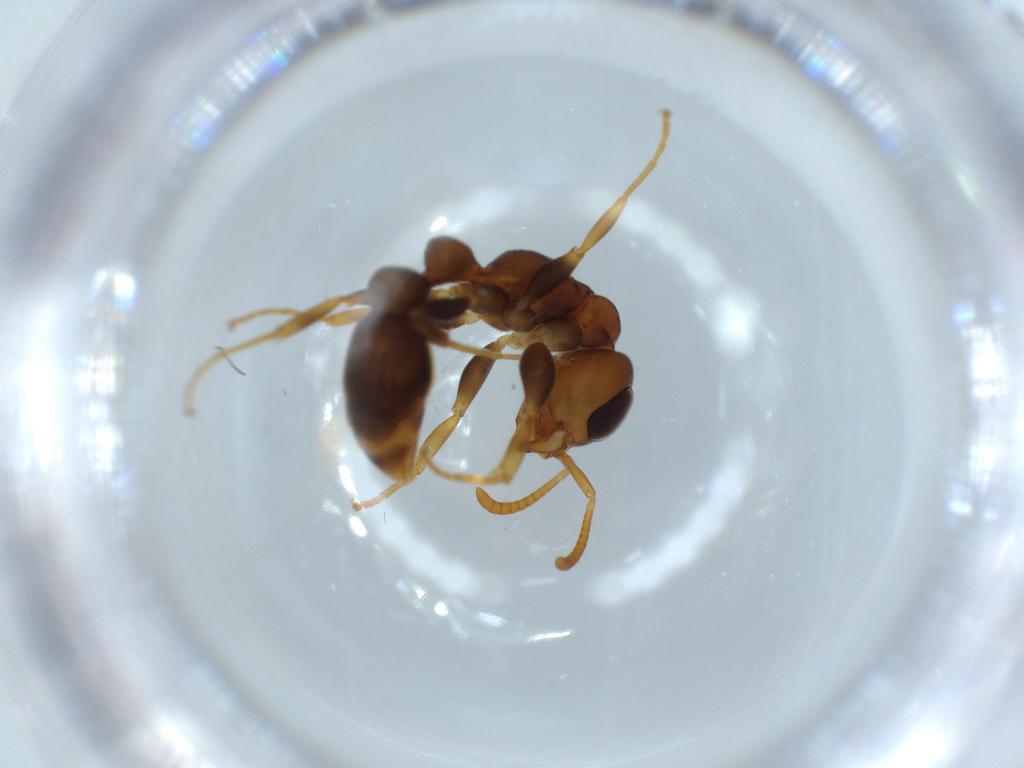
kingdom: Animalia
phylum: Arthropoda
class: Insecta
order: Hymenoptera
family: Formicidae
